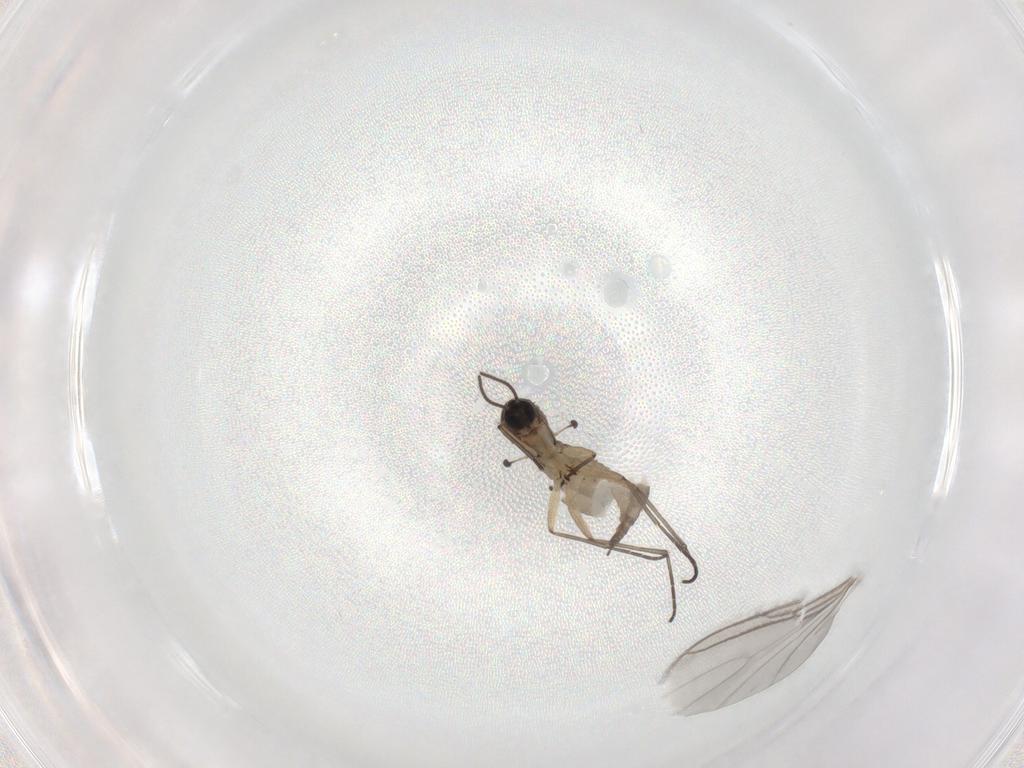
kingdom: Animalia
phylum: Arthropoda
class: Insecta
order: Diptera
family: Sciaridae
